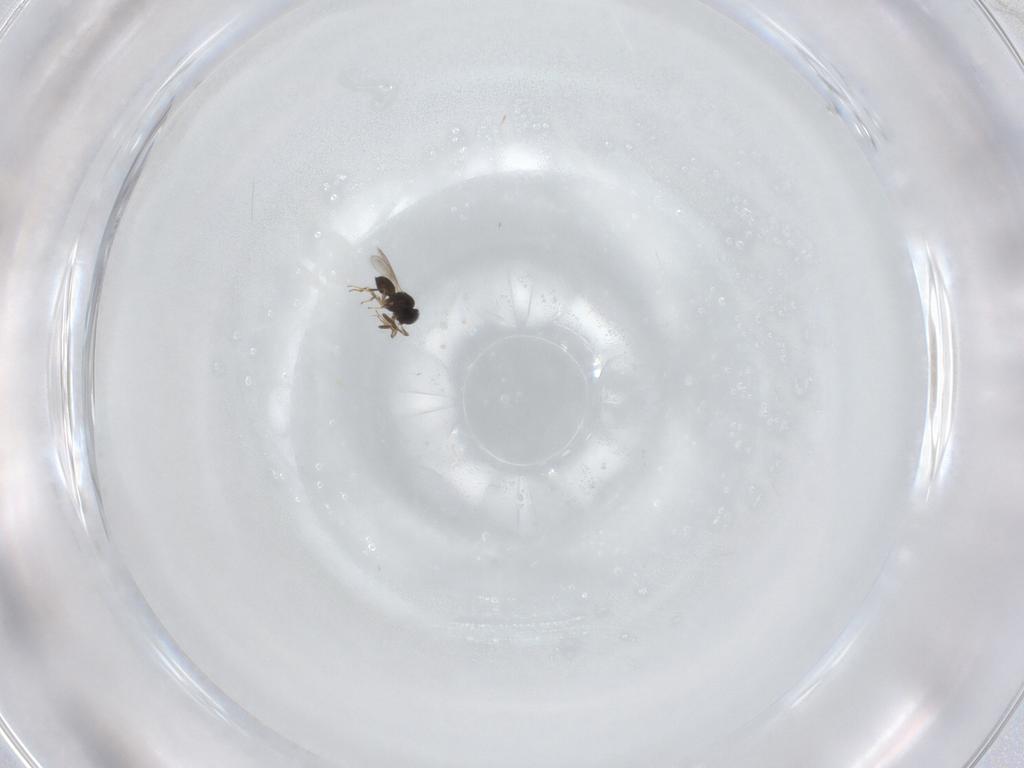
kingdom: Animalia
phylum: Arthropoda
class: Insecta
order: Hymenoptera
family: Scelionidae
